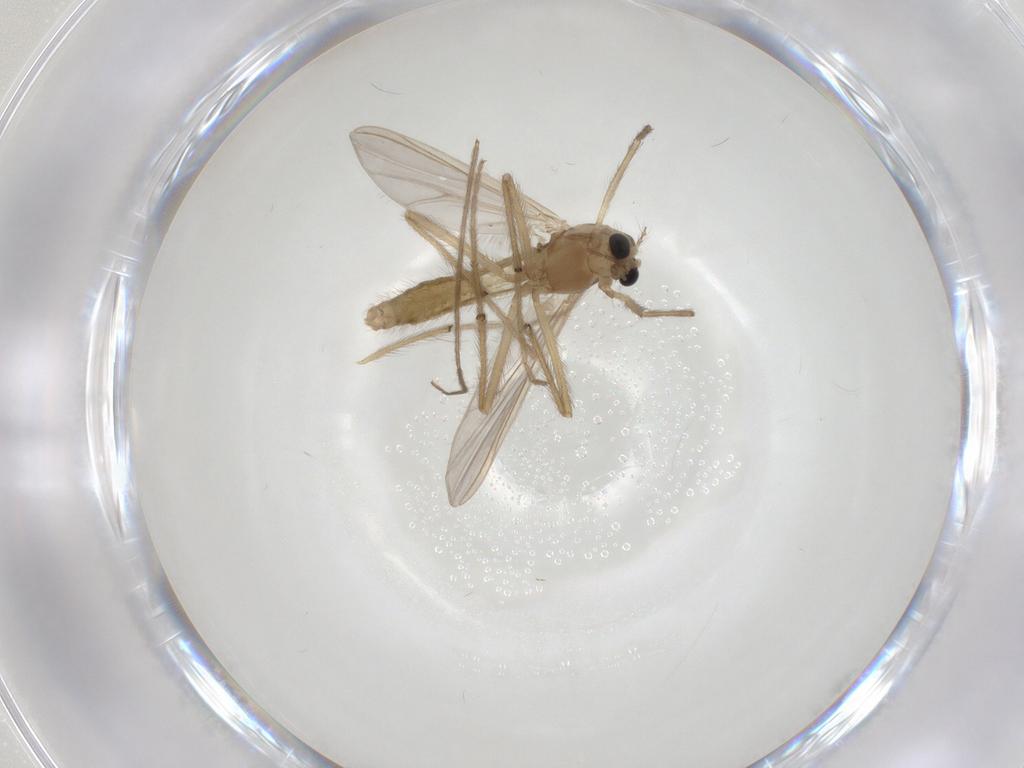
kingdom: Animalia
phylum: Arthropoda
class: Insecta
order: Diptera
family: Chironomidae
